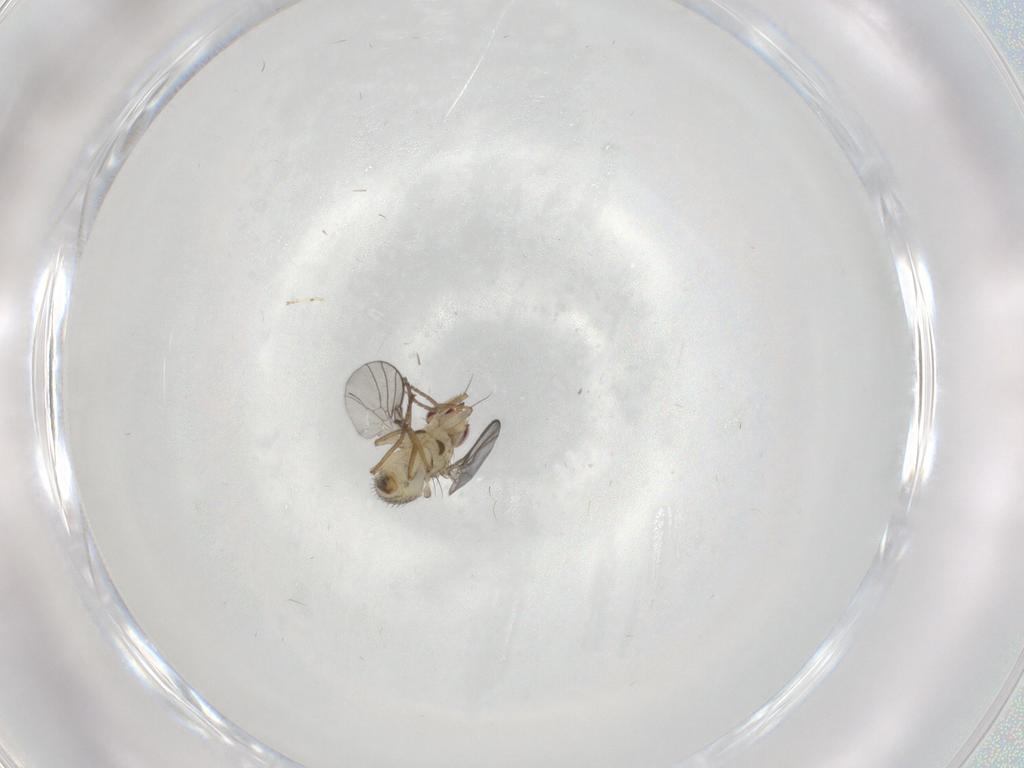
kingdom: Animalia
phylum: Arthropoda
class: Insecta
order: Diptera
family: Agromyzidae
